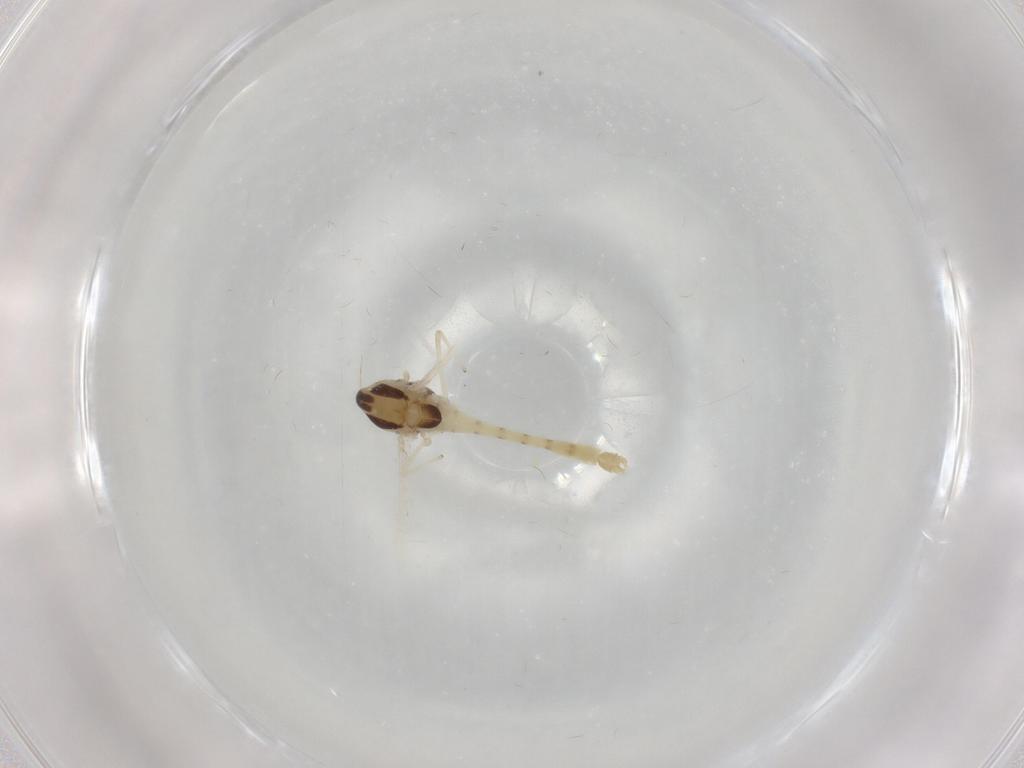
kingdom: Animalia
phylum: Arthropoda
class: Insecta
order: Diptera
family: Chironomidae
